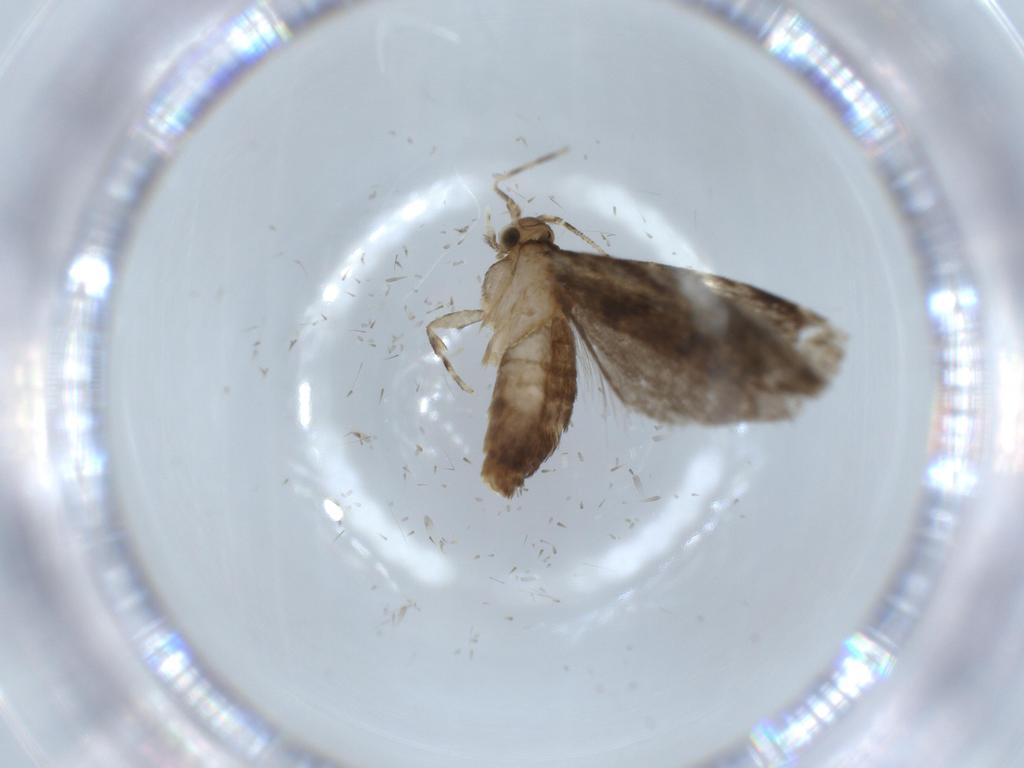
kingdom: Animalia
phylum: Arthropoda
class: Insecta
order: Lepidoptera
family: Tineidae
